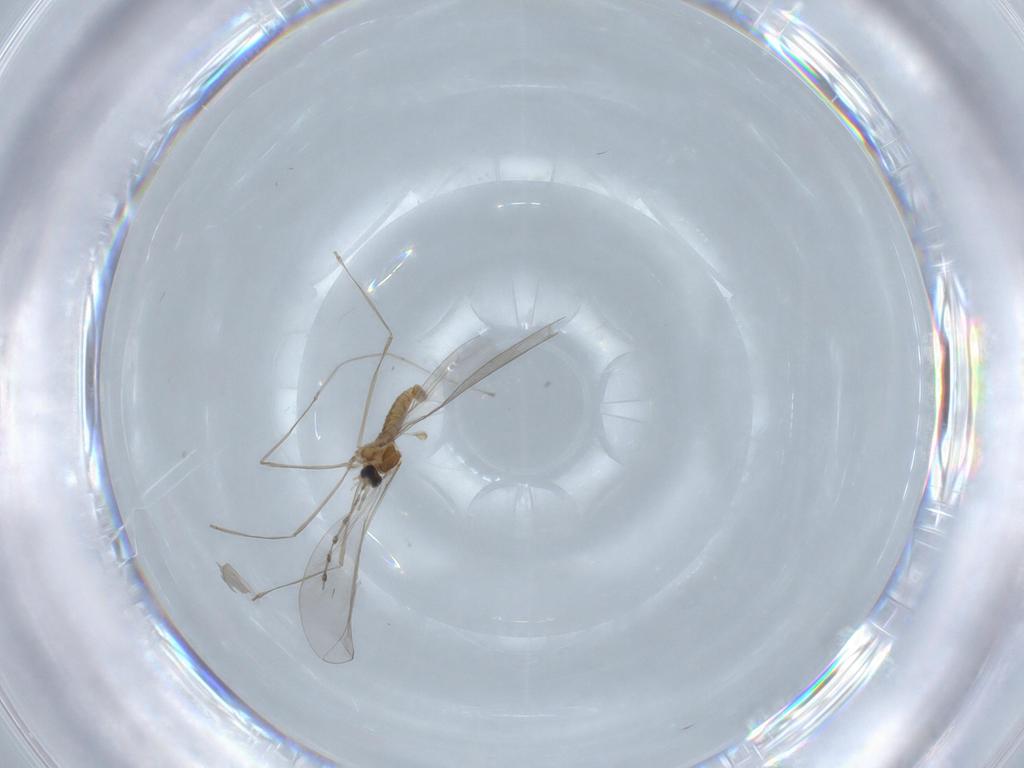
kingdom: Animalia
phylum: Arthropoda
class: Insecta
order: Diptera
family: Cecidomyiidae
